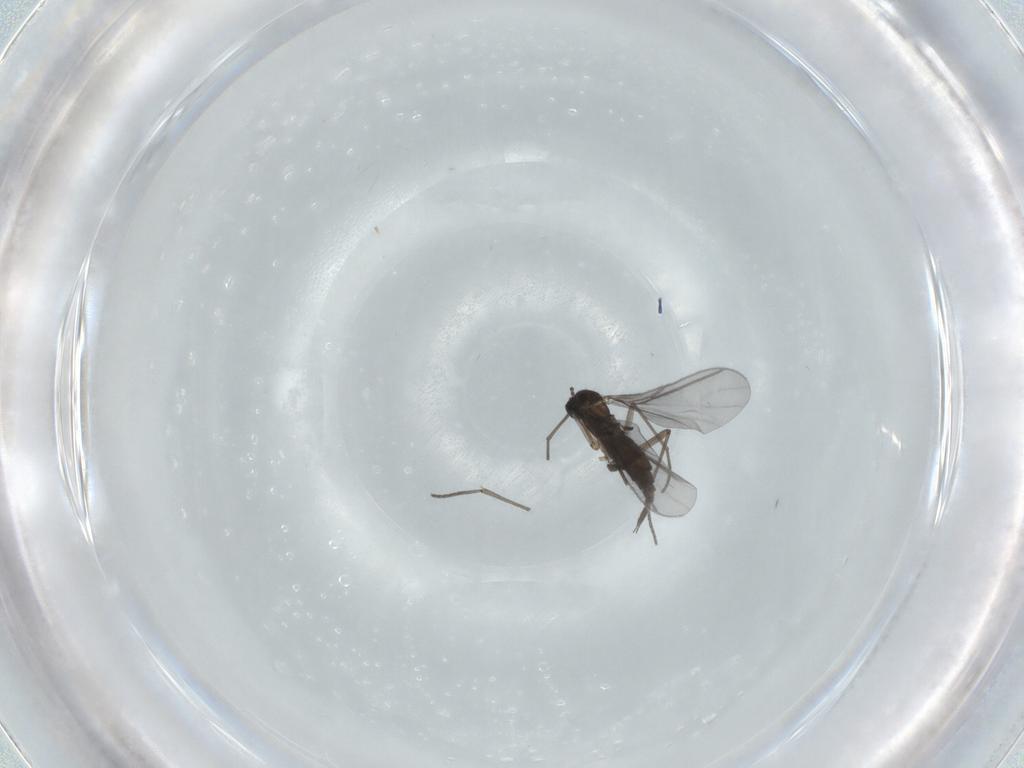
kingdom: Animalia
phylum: Arthropoda
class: Insecta
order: Diptera
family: Sciaridae
